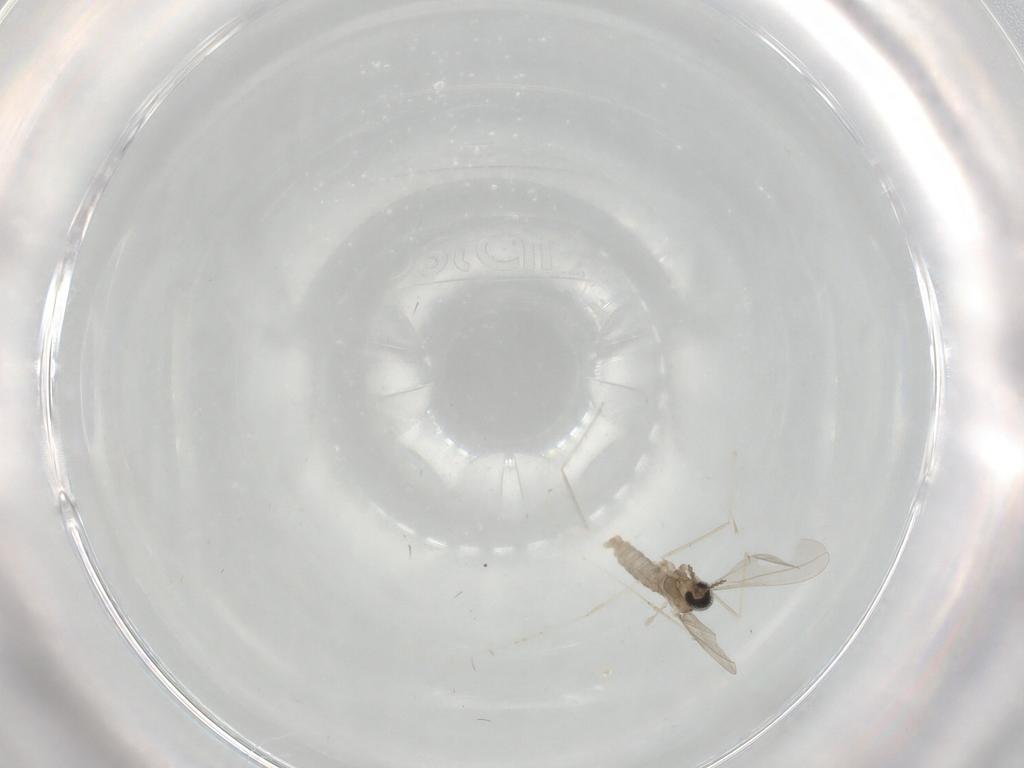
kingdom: Animalia
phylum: Arthropoda
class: Insecta
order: Diptera
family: Cecidomyiidae
